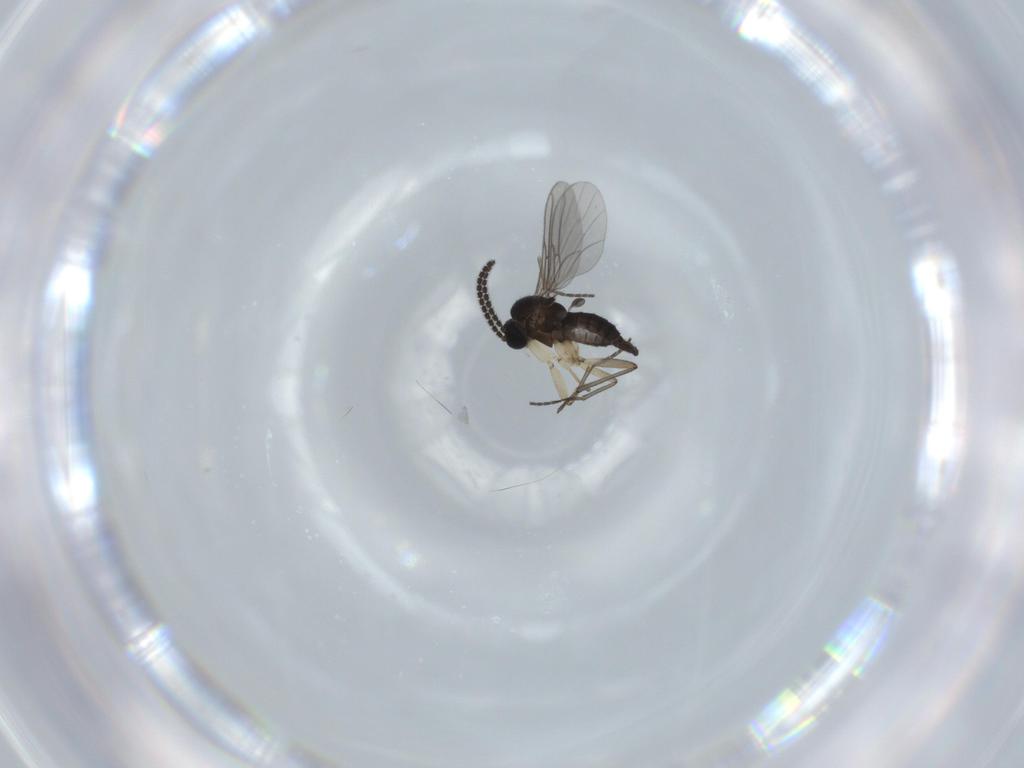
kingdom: Animalia
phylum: Arthropoda
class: Insecta
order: Diptera
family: Sciaridae
